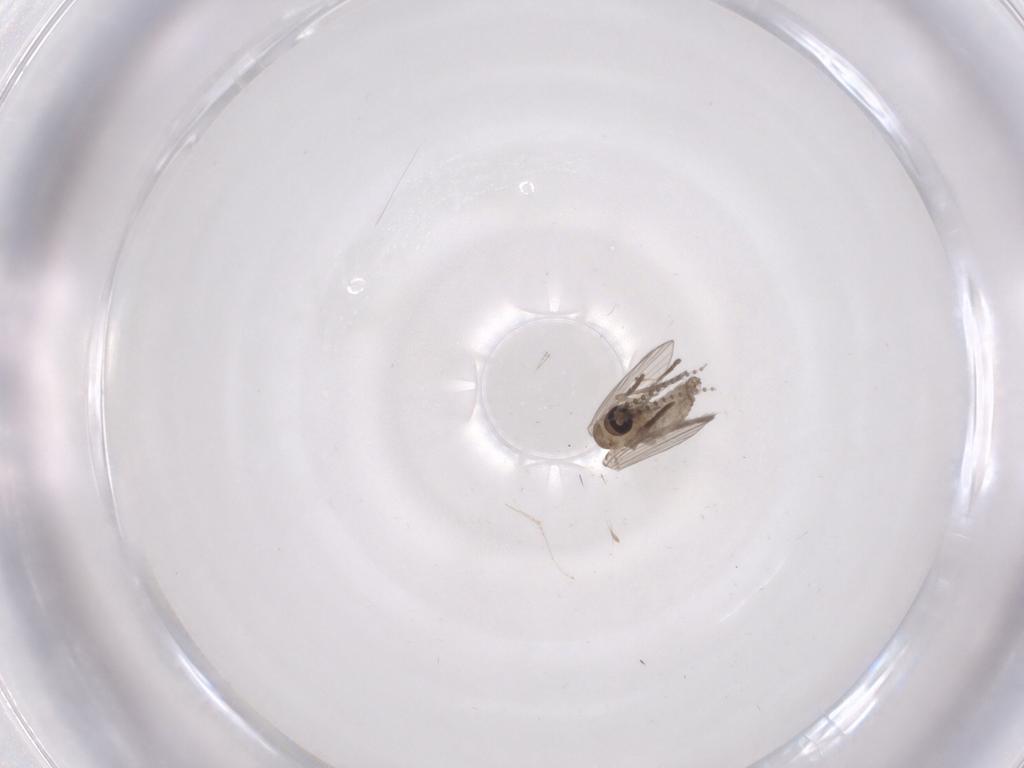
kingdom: Animalia
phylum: Arthropoda
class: Insecta
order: Diptera
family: Psychodidae
